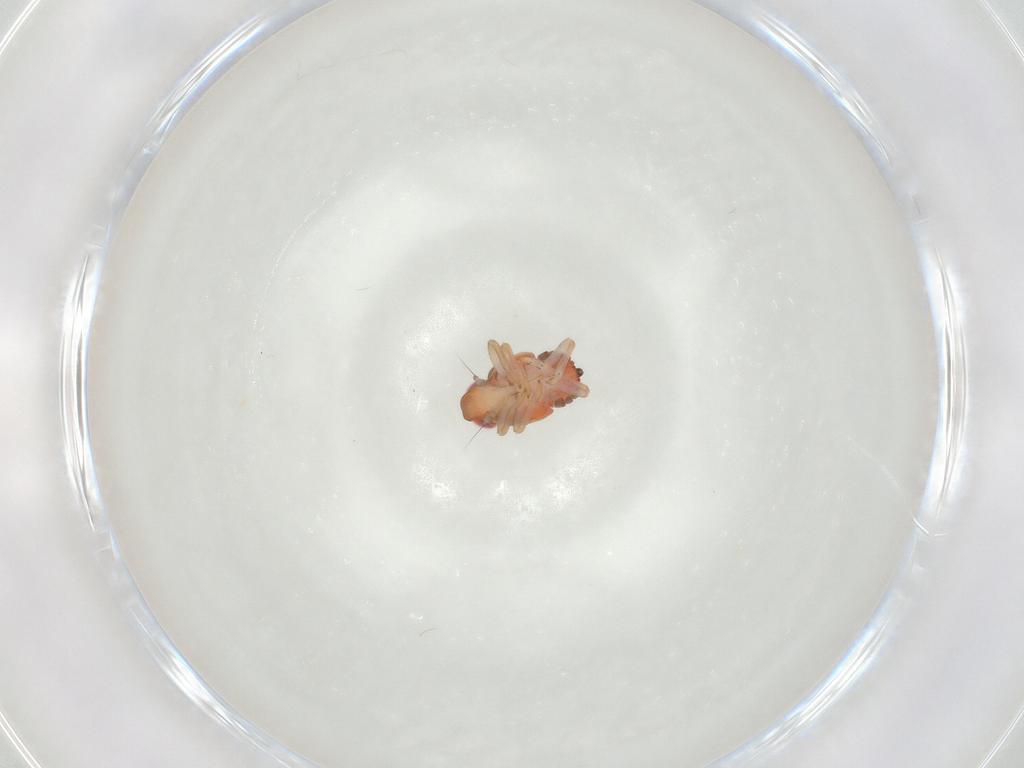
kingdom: Animalia
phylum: Arthropoda
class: Insecta
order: Hemiptera
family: Issidae
